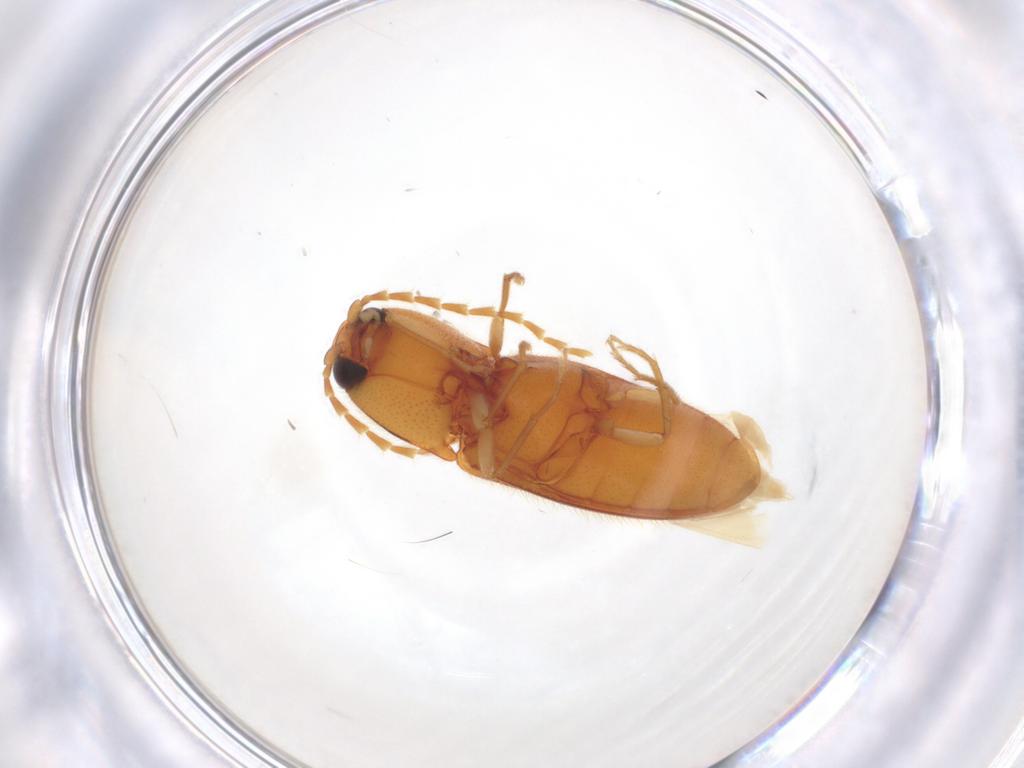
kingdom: Animalia
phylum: Arthropoda
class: Insecta
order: Coleoptera
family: Elateridae
